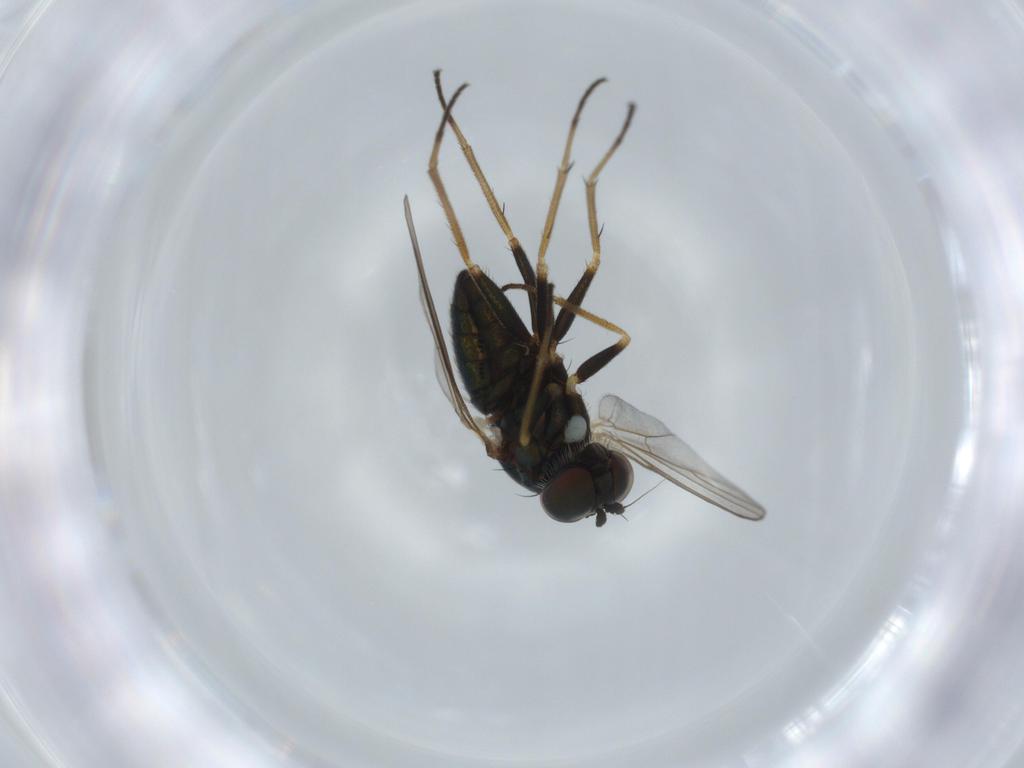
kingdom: Animalia
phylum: Arthropoda
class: Insecta
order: Diptera
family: Dolichopodidae
